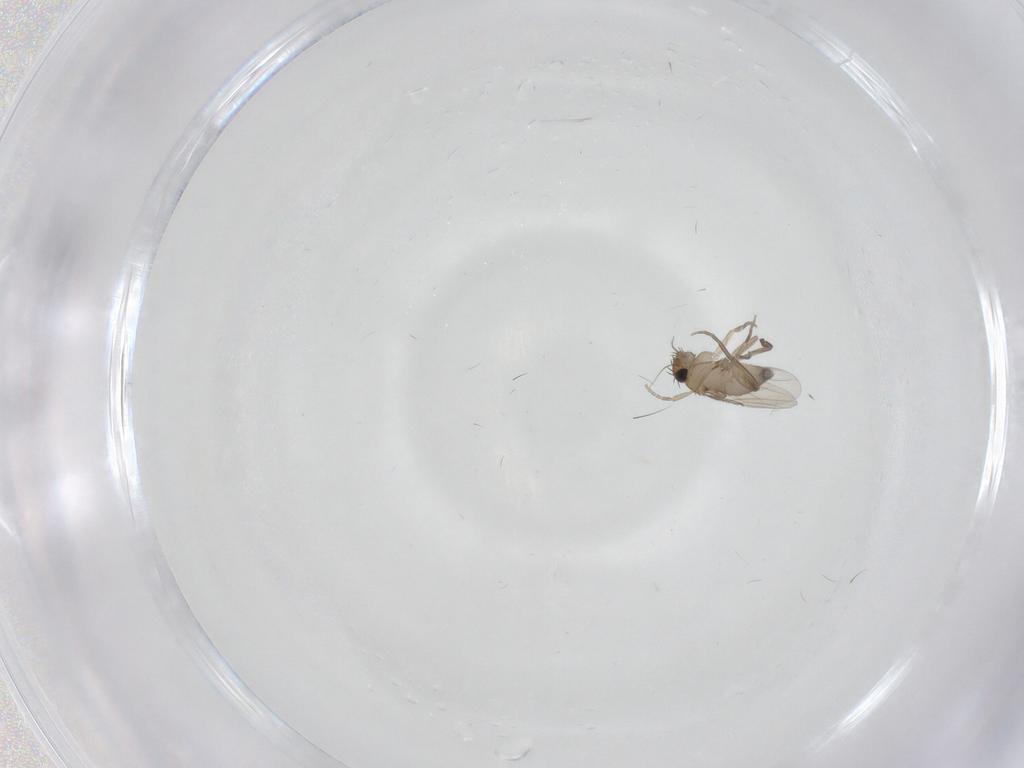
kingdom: Animalia
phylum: Arthropoda
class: Insecta
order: Diptera
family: Phoridae
